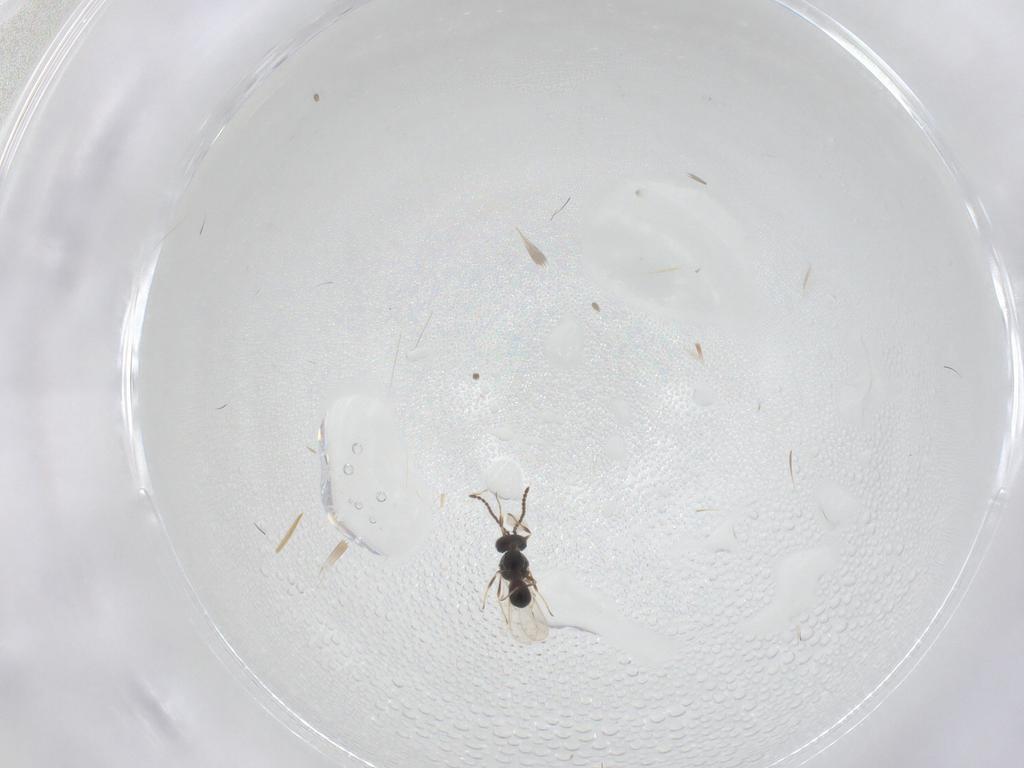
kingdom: Animalia
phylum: Arthropoda
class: Insecta
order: Hymenoptera
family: Scelionidae
